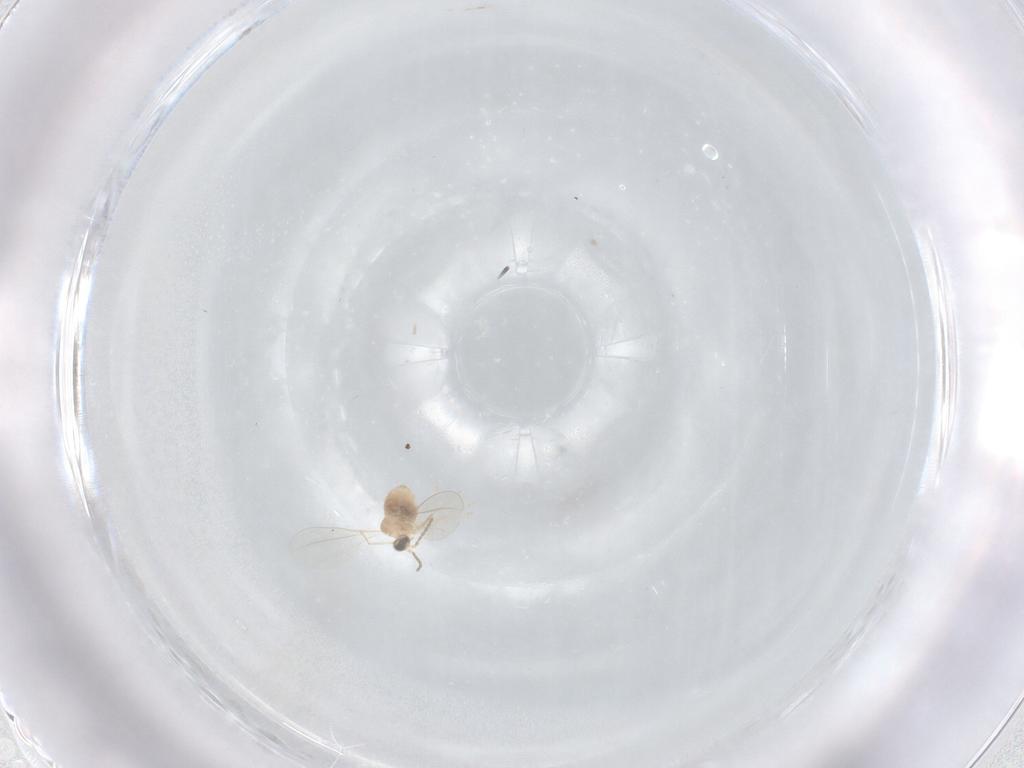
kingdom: Animalia
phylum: Arthropoda
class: Insecta
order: Diptera
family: Cecidomyiidae
